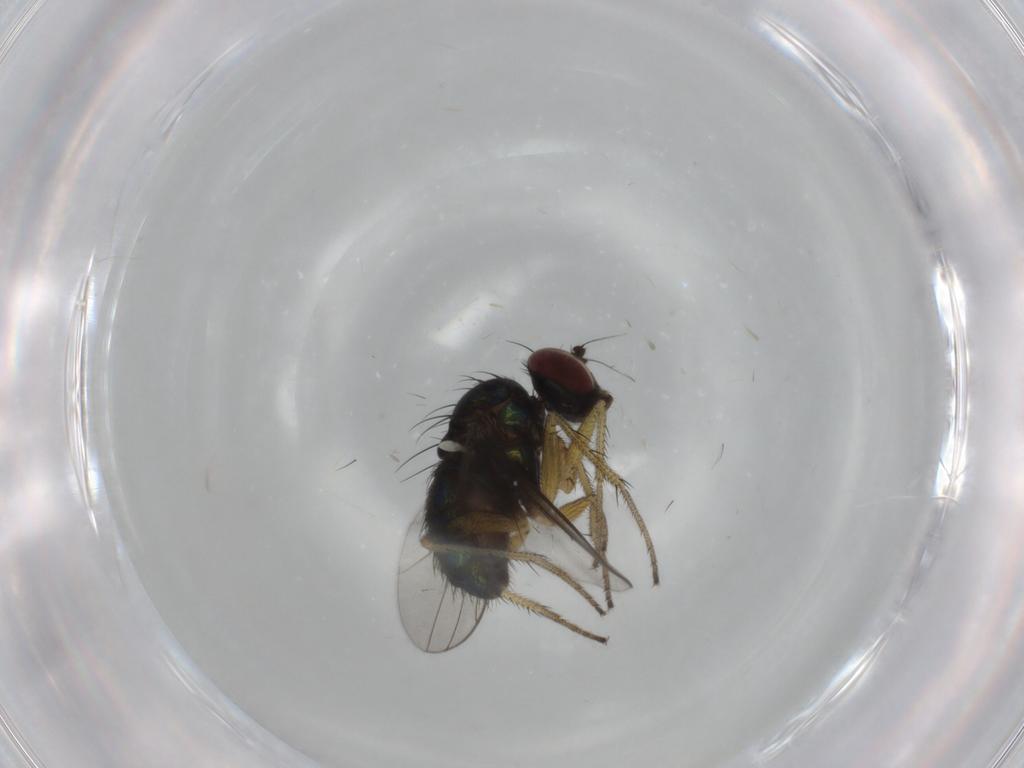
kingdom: Animalia
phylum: Arthropoda
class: Insecta
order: Diptera
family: Dolichopodidae
